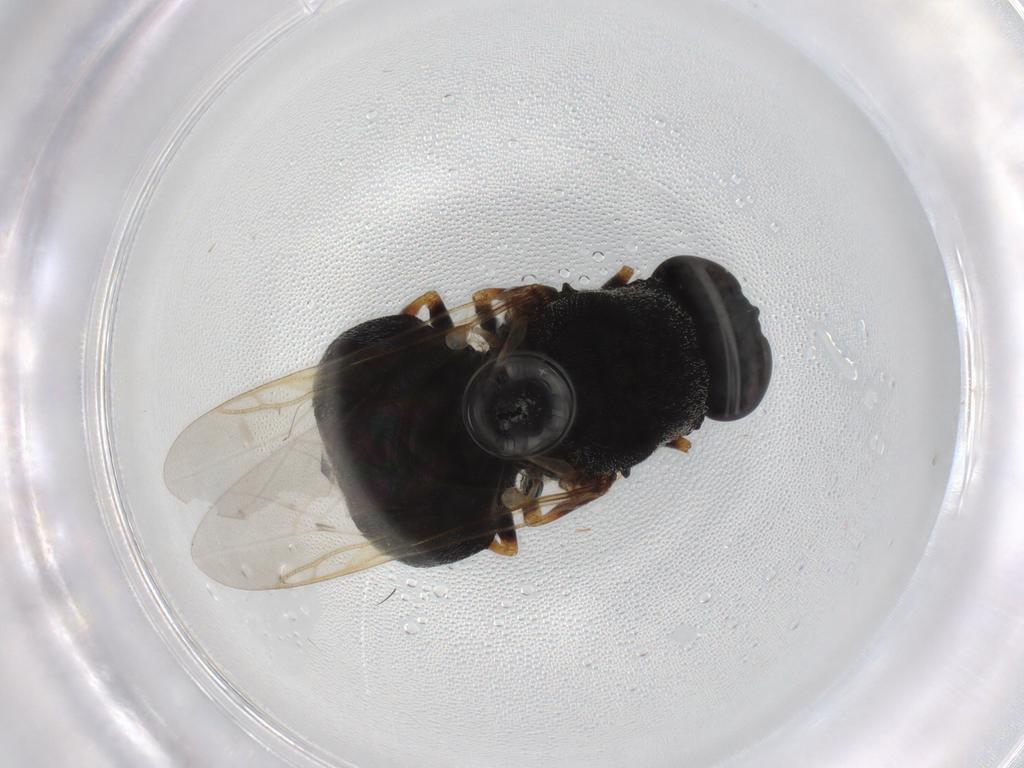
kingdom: Animalia
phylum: Arthropoda
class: Insecta
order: Diptera
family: Stratiomyidae
